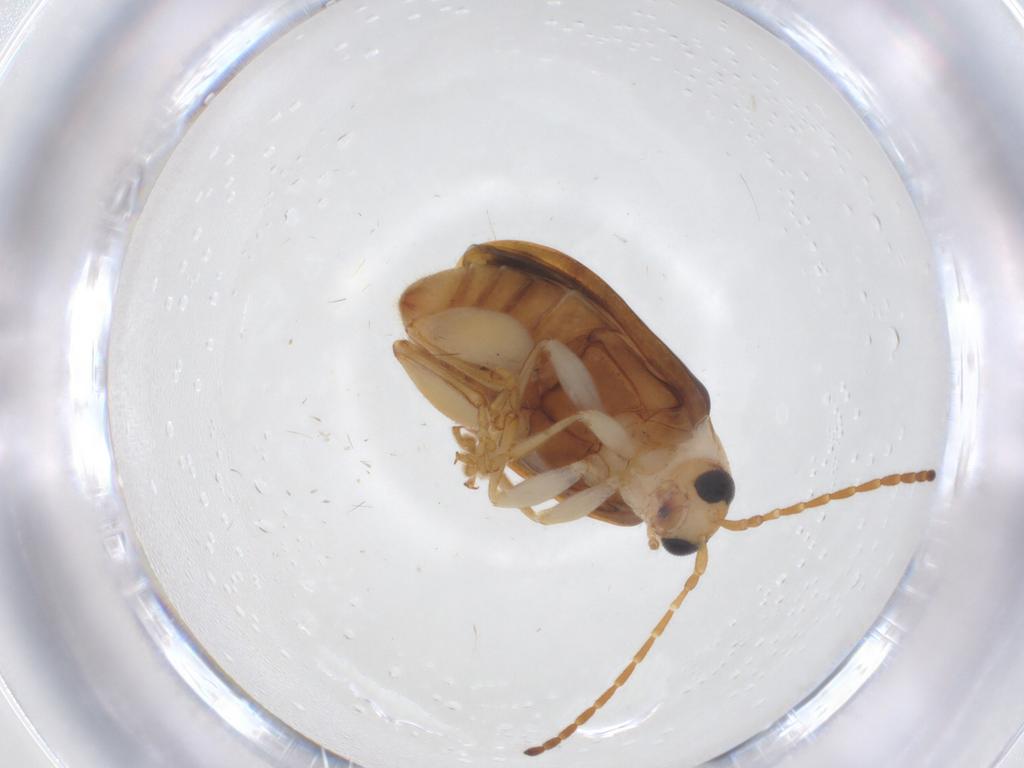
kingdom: Animalia
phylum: Arthropoda
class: Insecta
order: Coleoptera
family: Chrysomelidae
